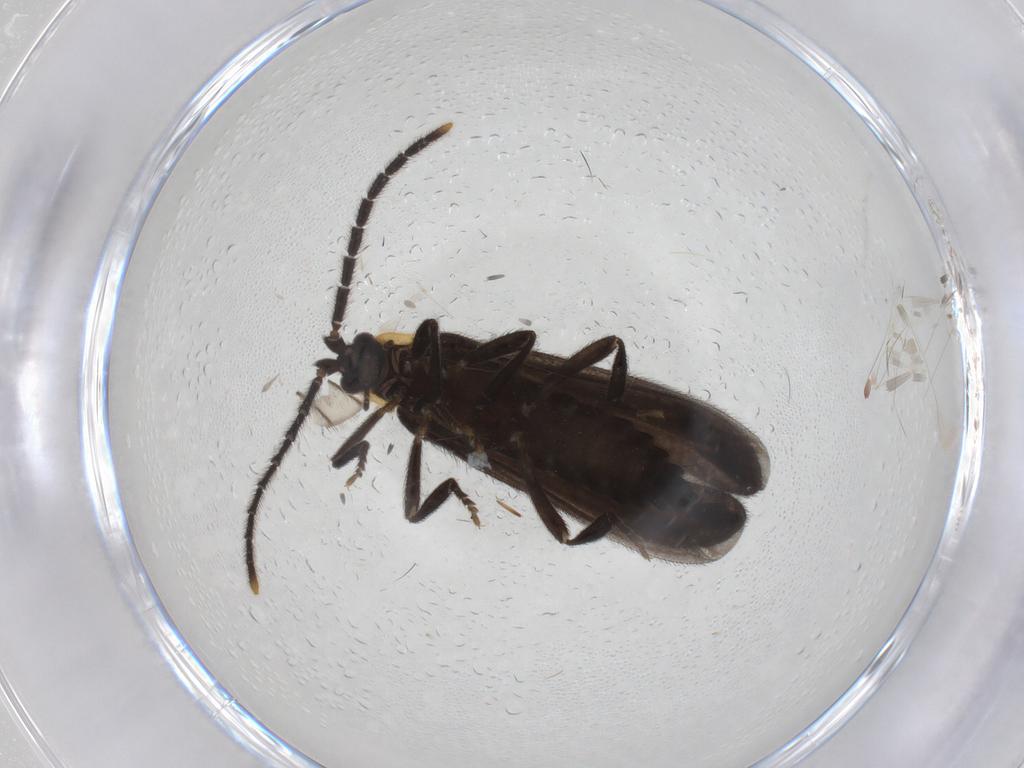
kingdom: Animalia
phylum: Arthropoda
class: Insecta
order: Coleoptera
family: Lycidae
